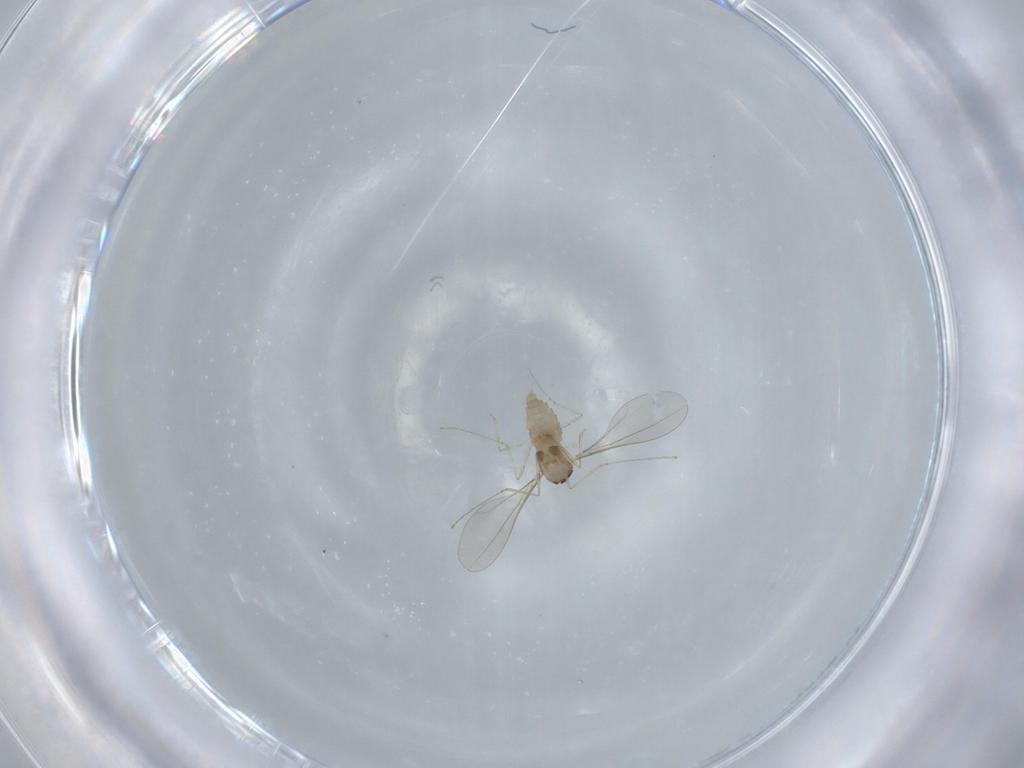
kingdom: Animalia
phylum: Arthropoda
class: Insecta
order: Diptera
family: Cecidomyiidae
